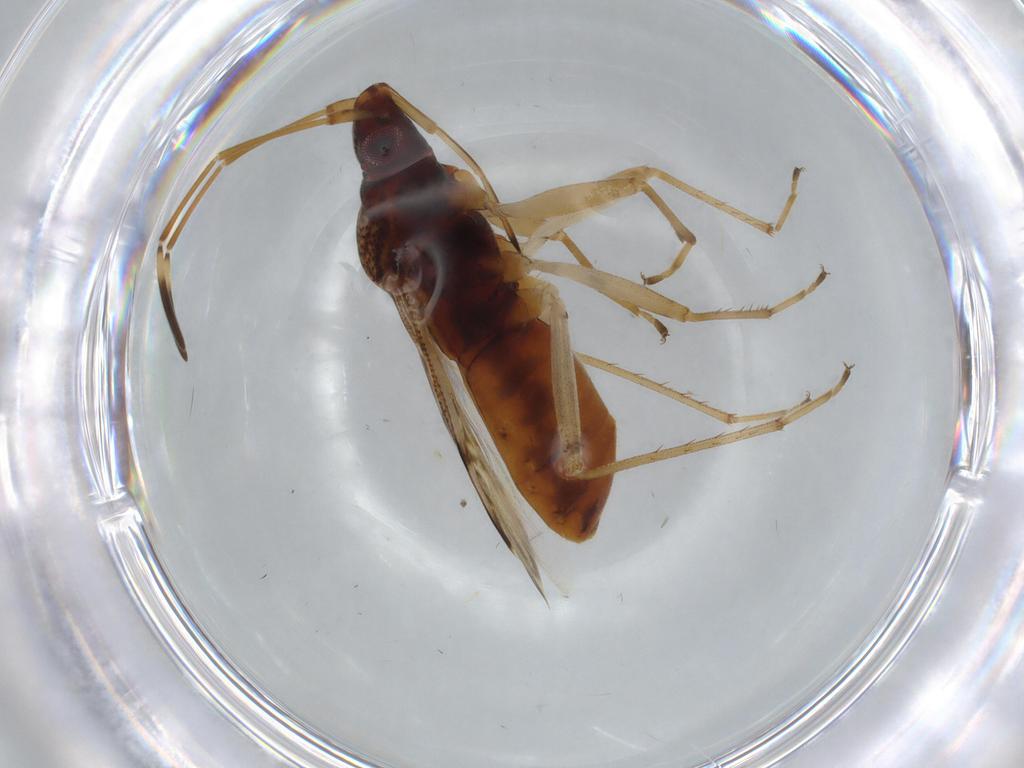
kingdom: Animalia
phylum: Arthropoda
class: Insecta
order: Hemiptera
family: Rhyparochromidae
